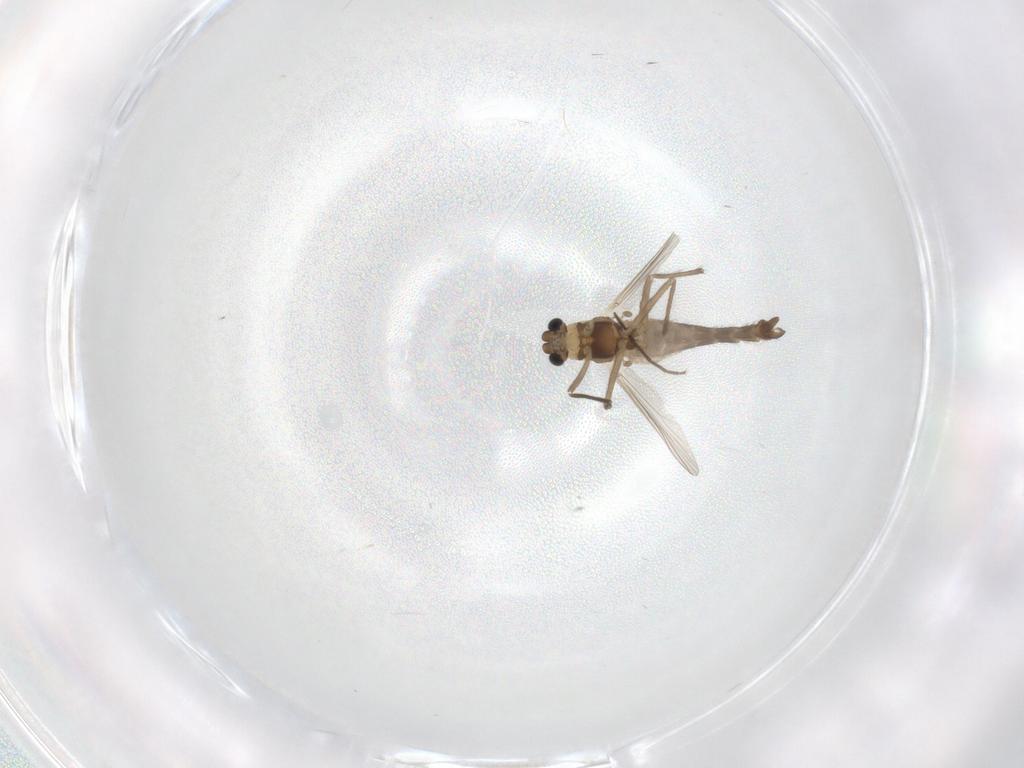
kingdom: Animalia
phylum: Arthropoda
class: Insecta
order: Diptera
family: Chironomidae
